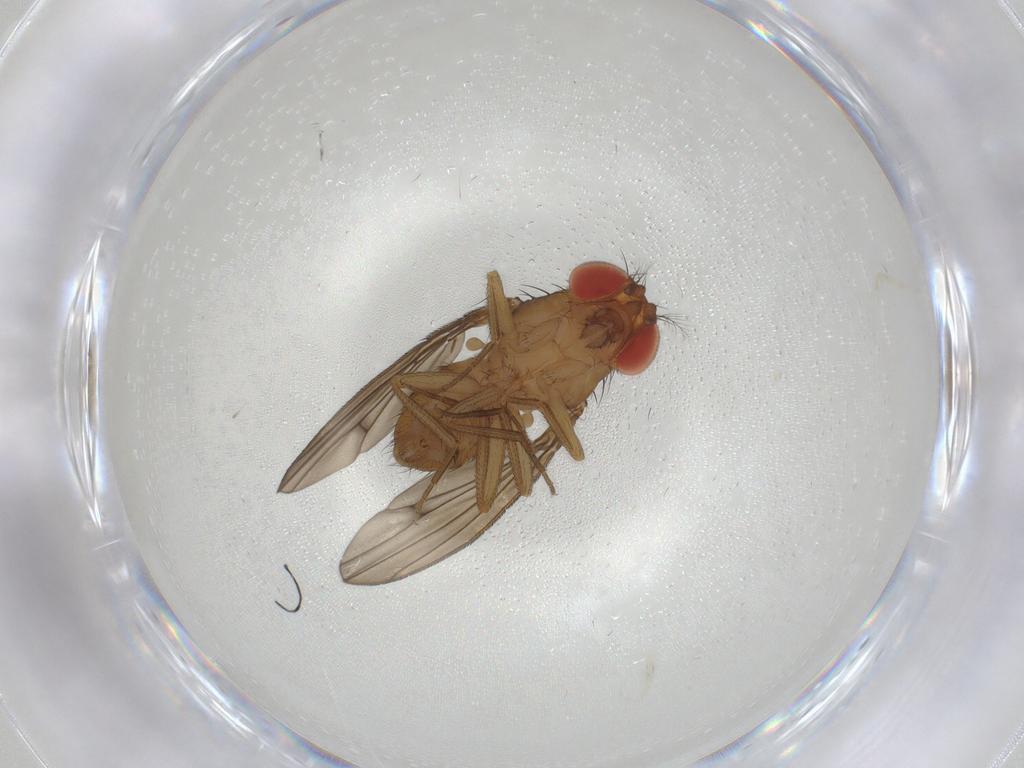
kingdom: Animalia
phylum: Arthropoda
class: Insecta
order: Diptera
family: Drosophilidae
